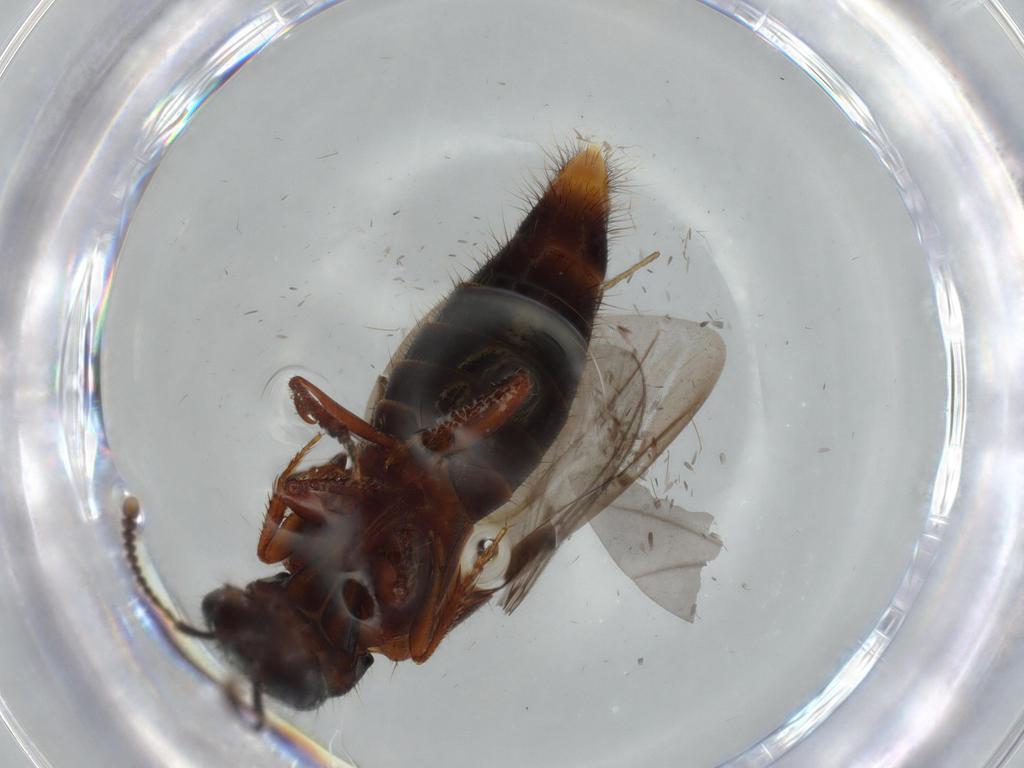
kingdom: Animalia
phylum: Arthropoda
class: Insecta
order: Coleoptera
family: Staphylinidae
